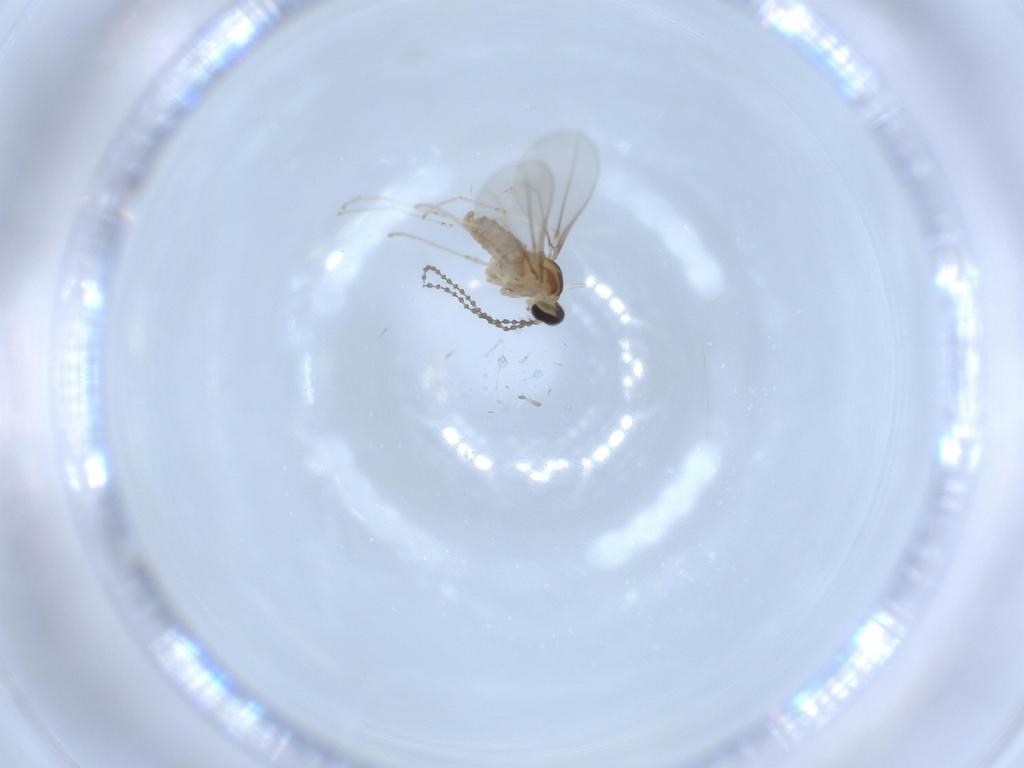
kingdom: Animalia
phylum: Arthropoda
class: Insecta
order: Diptera
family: Cecidomyiidae
